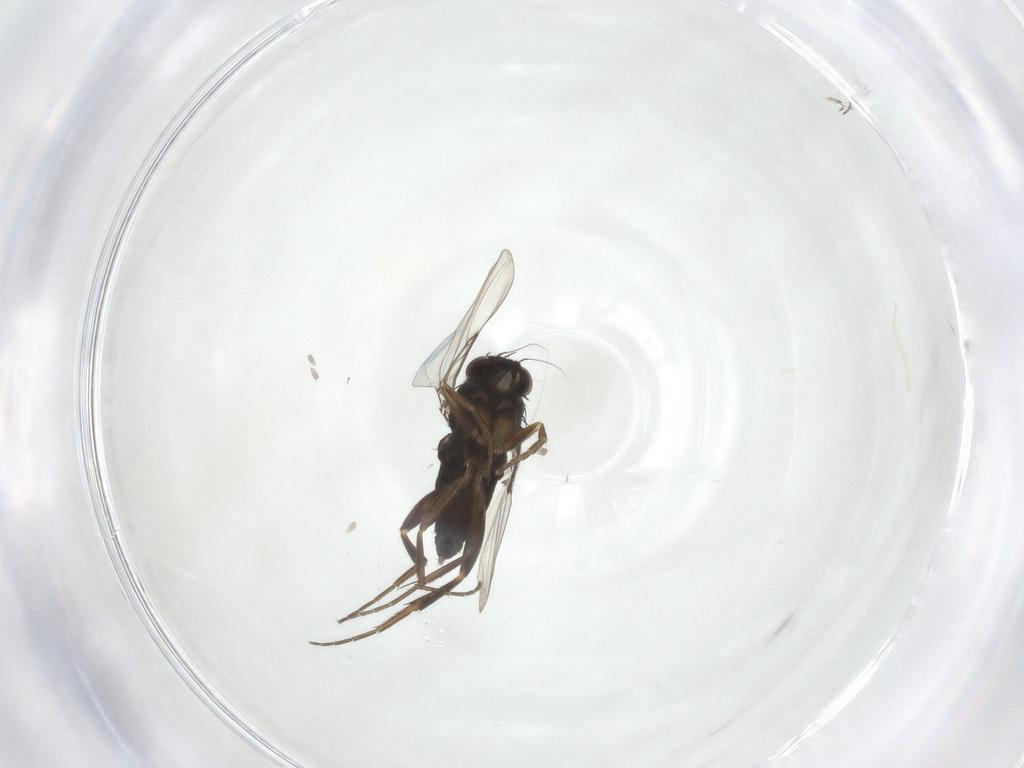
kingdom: Animalia
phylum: Arthropoda
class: Insecta
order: Diptera
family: Phoridae
